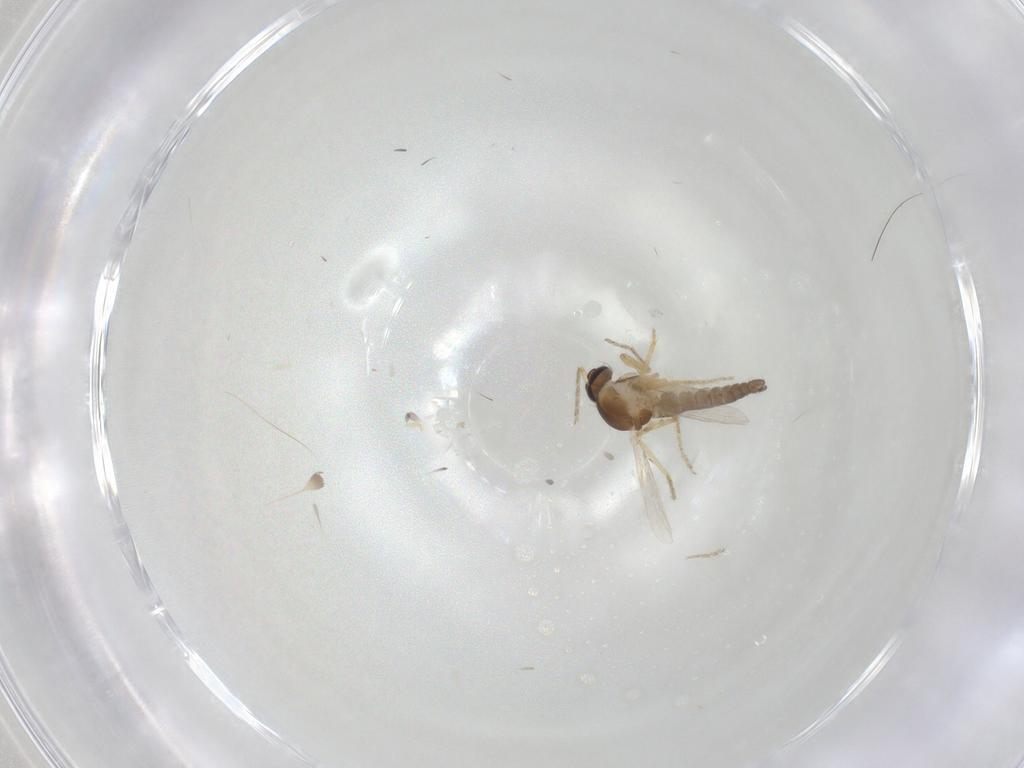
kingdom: Animalia
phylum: Arthropoda
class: Insecta
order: Diptera
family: Ceratopogonidae
